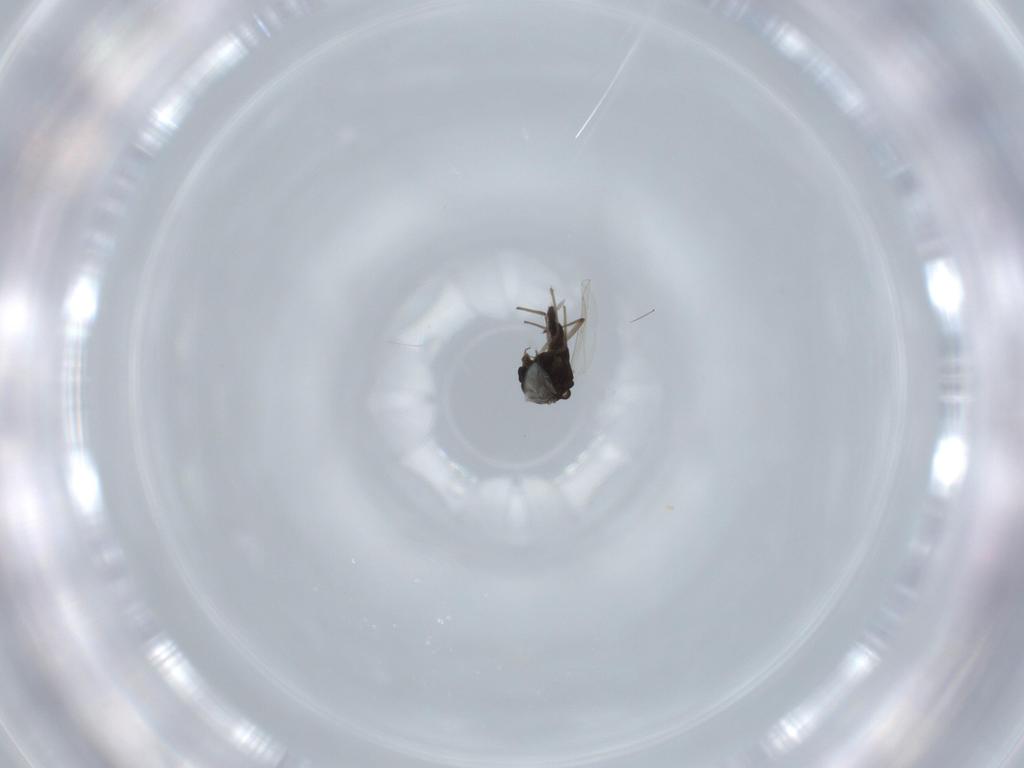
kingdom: Animalia
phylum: Arthropoda
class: Insecta
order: Diptera
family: Chironomidae
